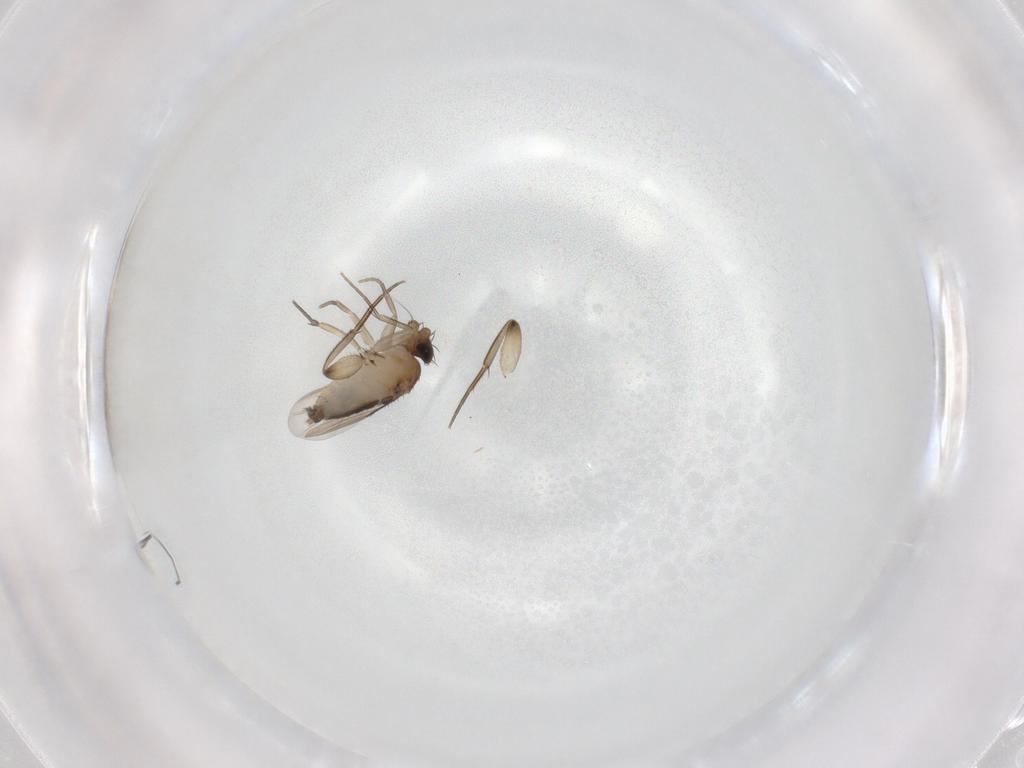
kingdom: Animalia
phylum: Arthropoda
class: Insecta
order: Diptera
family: Phoridae
